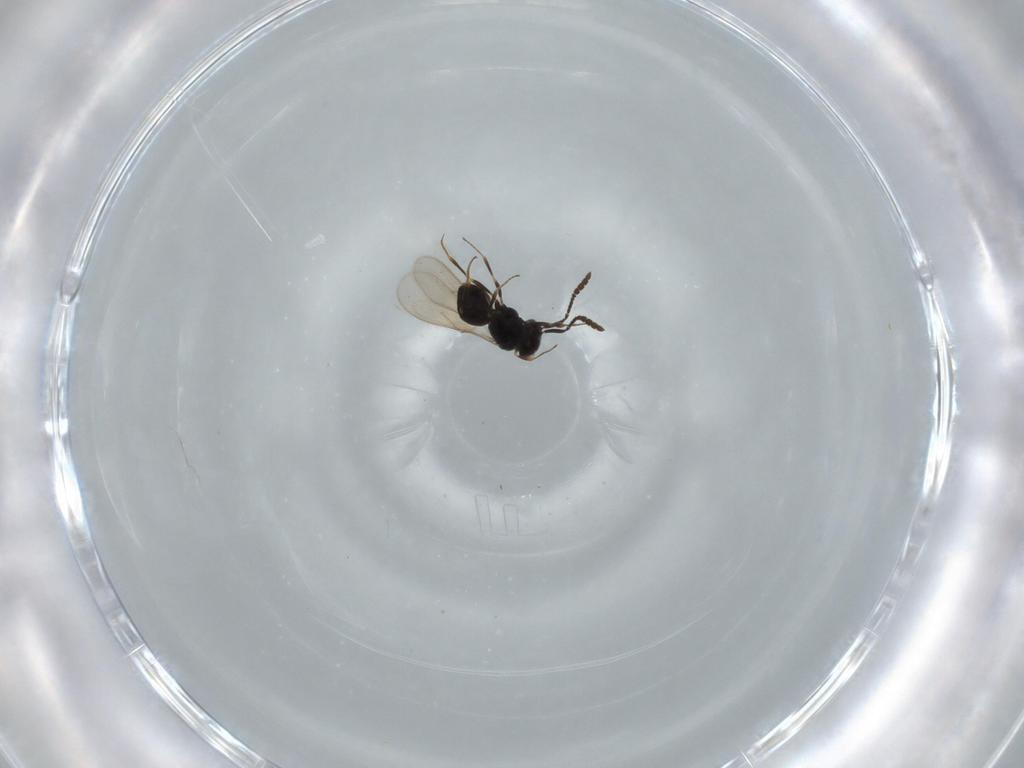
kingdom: Animalia
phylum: Arthropoda
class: Insecta
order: Hymenoptera
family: Scelionidae
